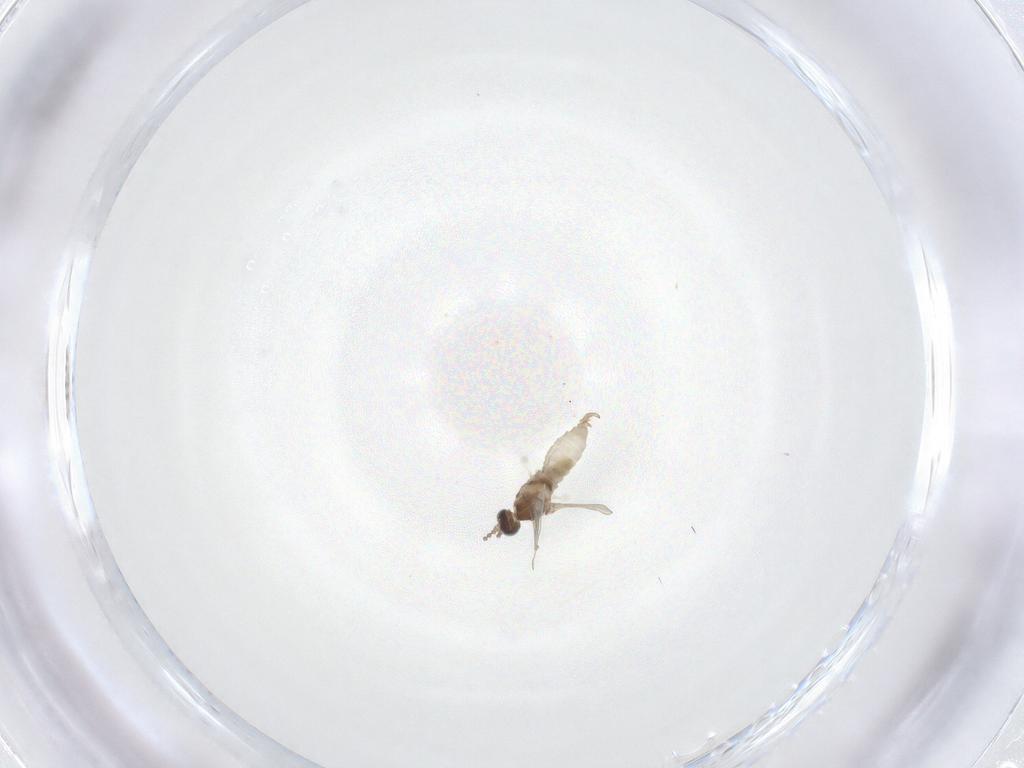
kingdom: Animalia
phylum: Arthropoda
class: Insecta
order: Diptera
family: Cecidomyiidae
